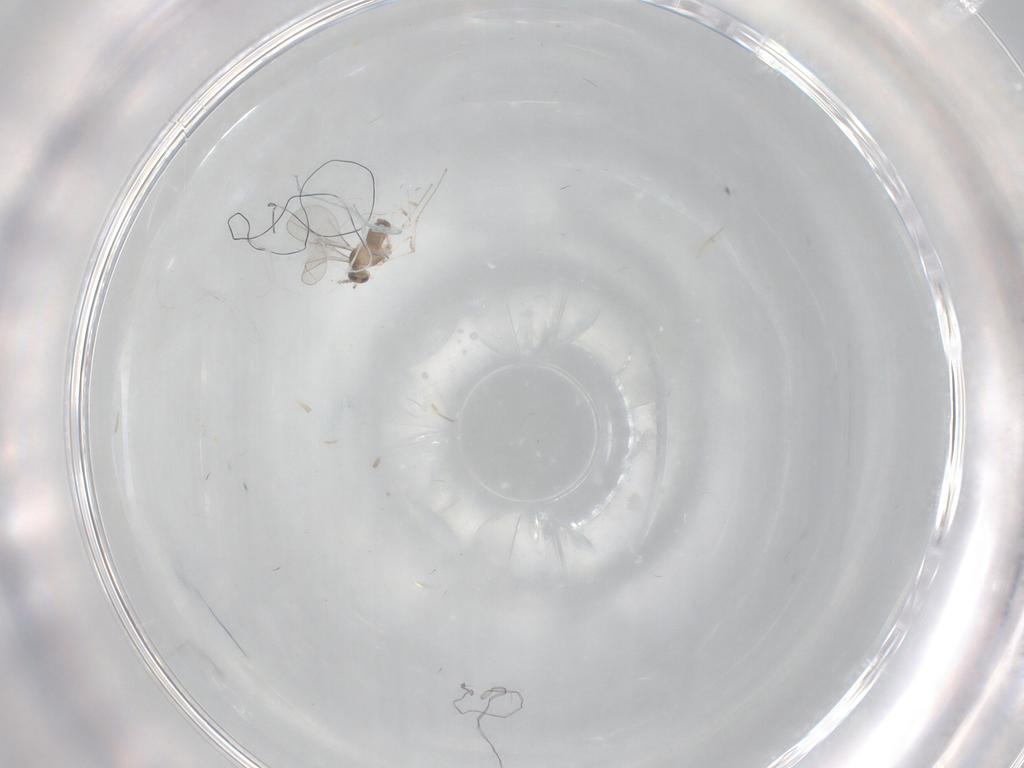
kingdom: Animalia
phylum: Arthropoda
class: Insecta
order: Diptera
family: Cecidomyiidae
